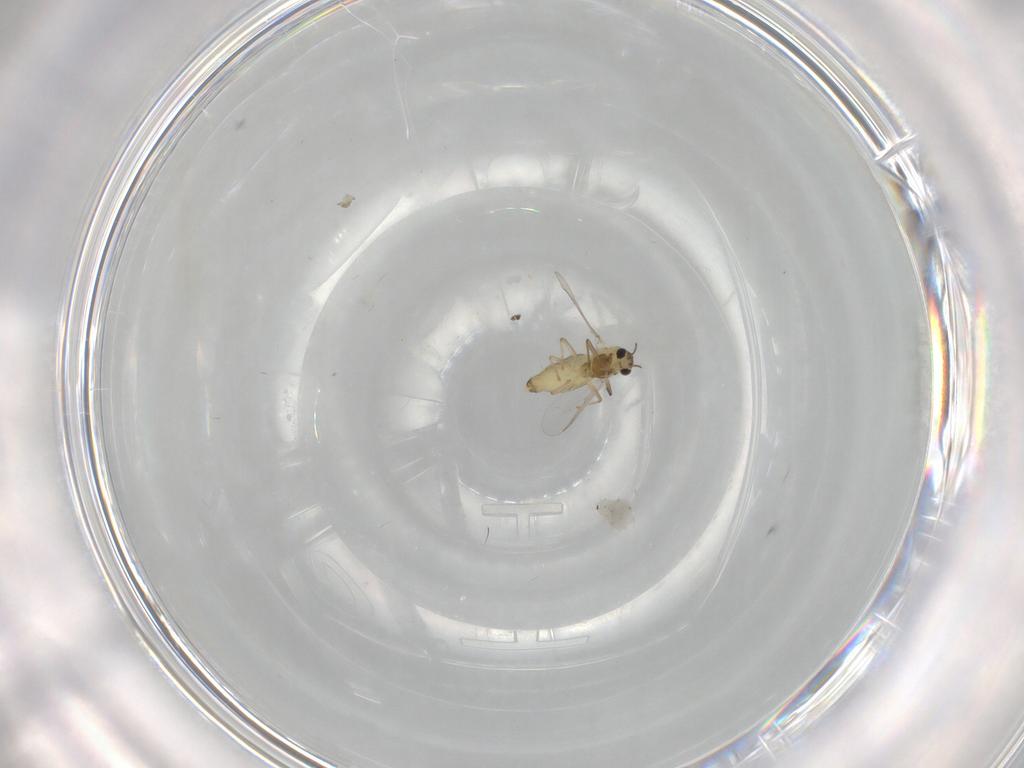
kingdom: Animalia
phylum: Arthropoda
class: Insecta
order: Diptera
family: Chironomidae
